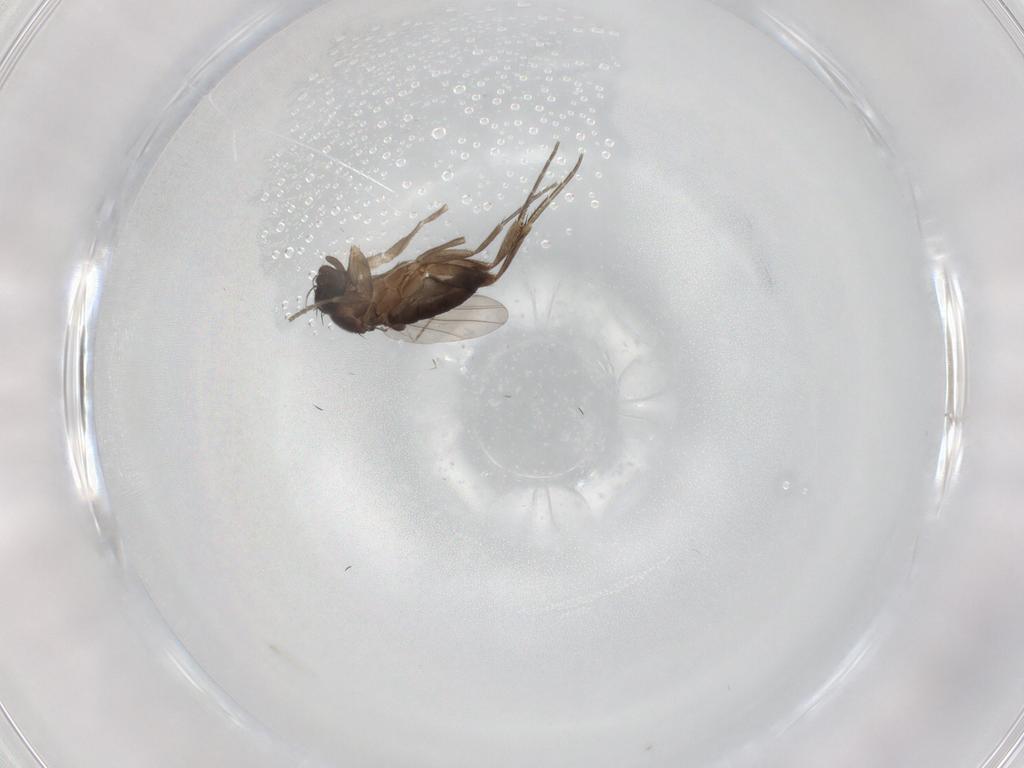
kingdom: Animalia
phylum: Arthropoda
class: Insecta
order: Diptera
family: Phoridae
